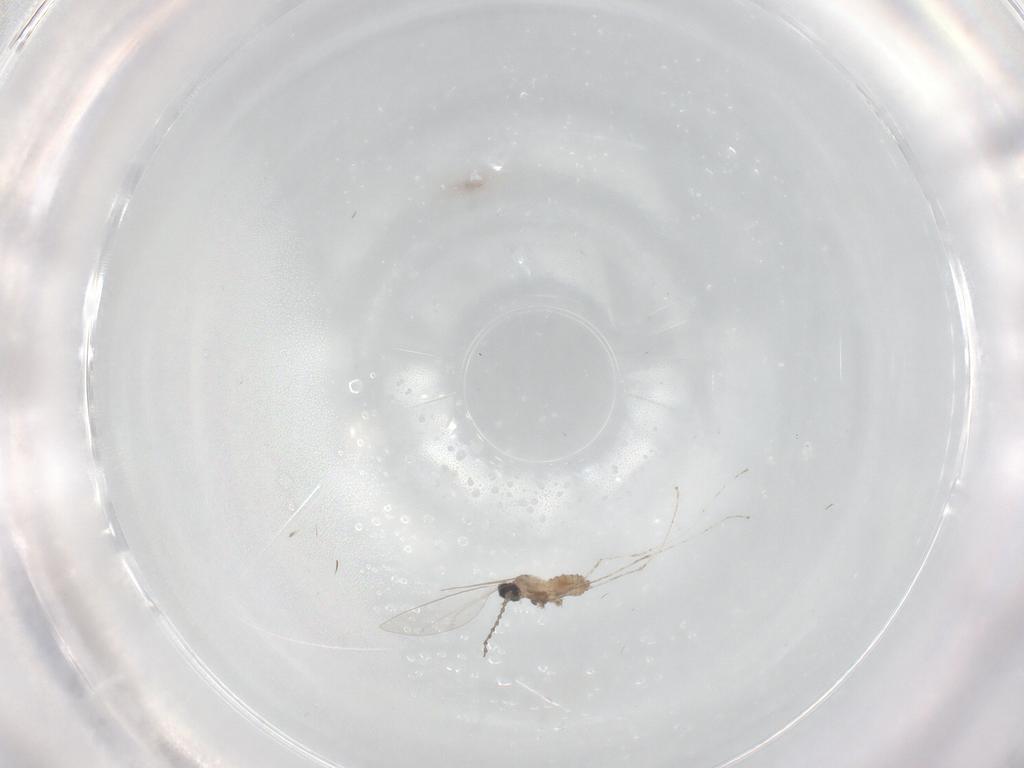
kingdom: Animalia
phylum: Arthropoda
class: Insecta
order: Diptera
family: Cecidomyiidae
